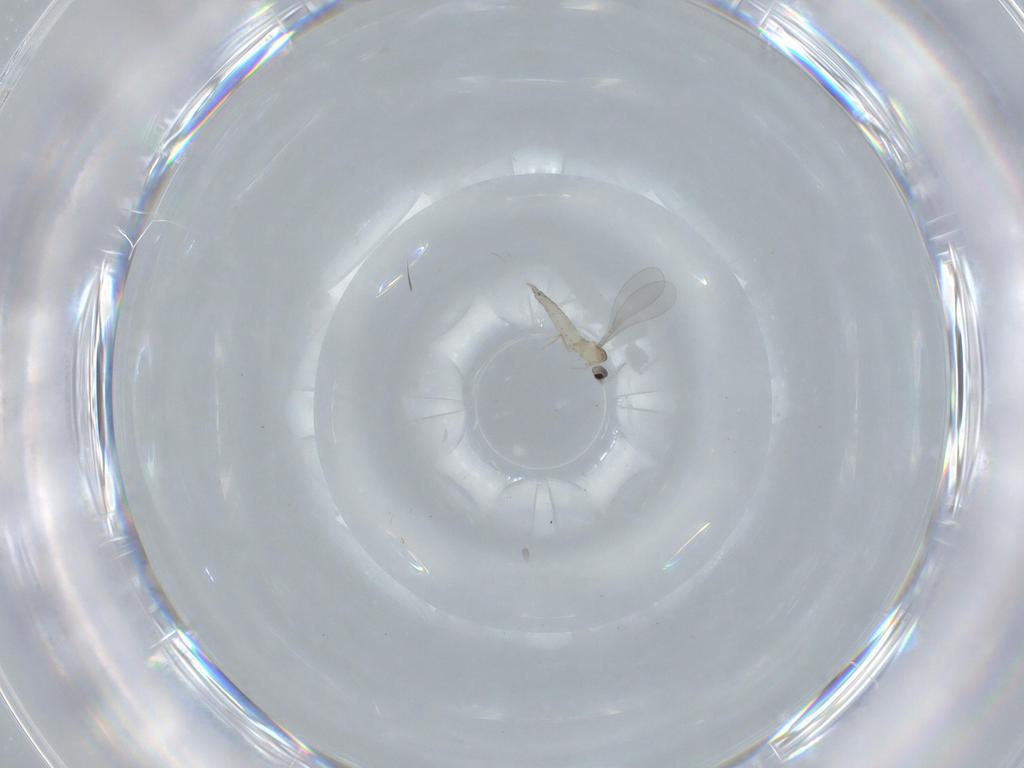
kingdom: Animalia
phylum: Arthropoda
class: Insecta
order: Diptera
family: Cecidomyiidae
